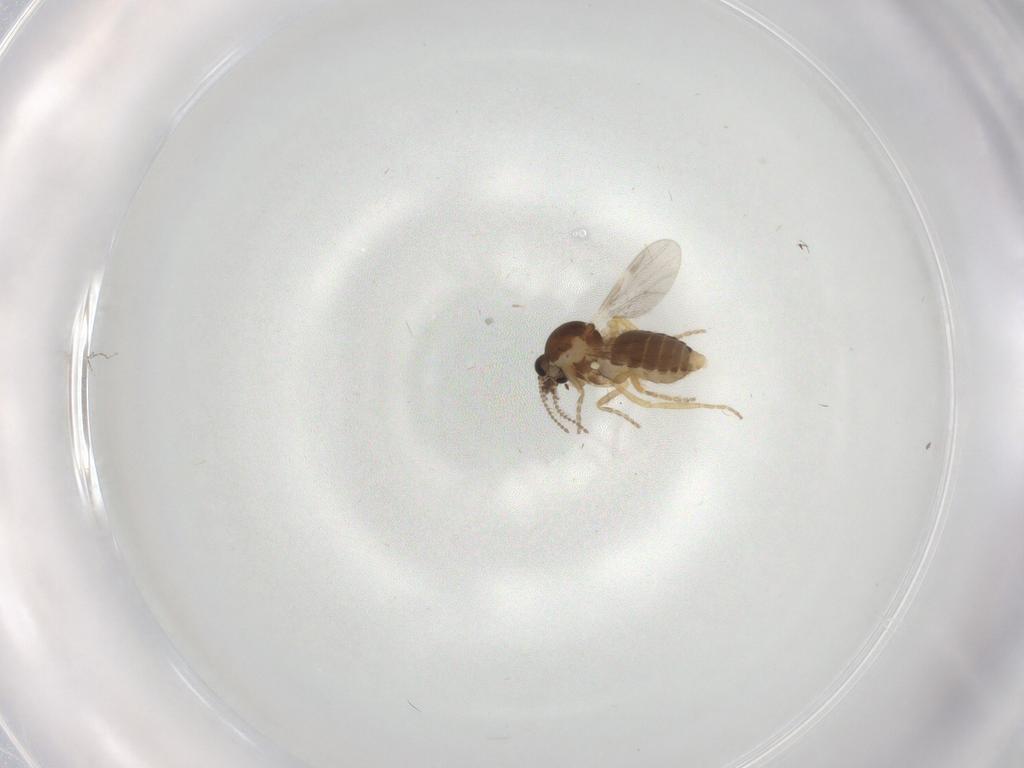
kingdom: Animalia
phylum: Arthropoda
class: Insecta
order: Diptera
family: Ceratopogonidae
